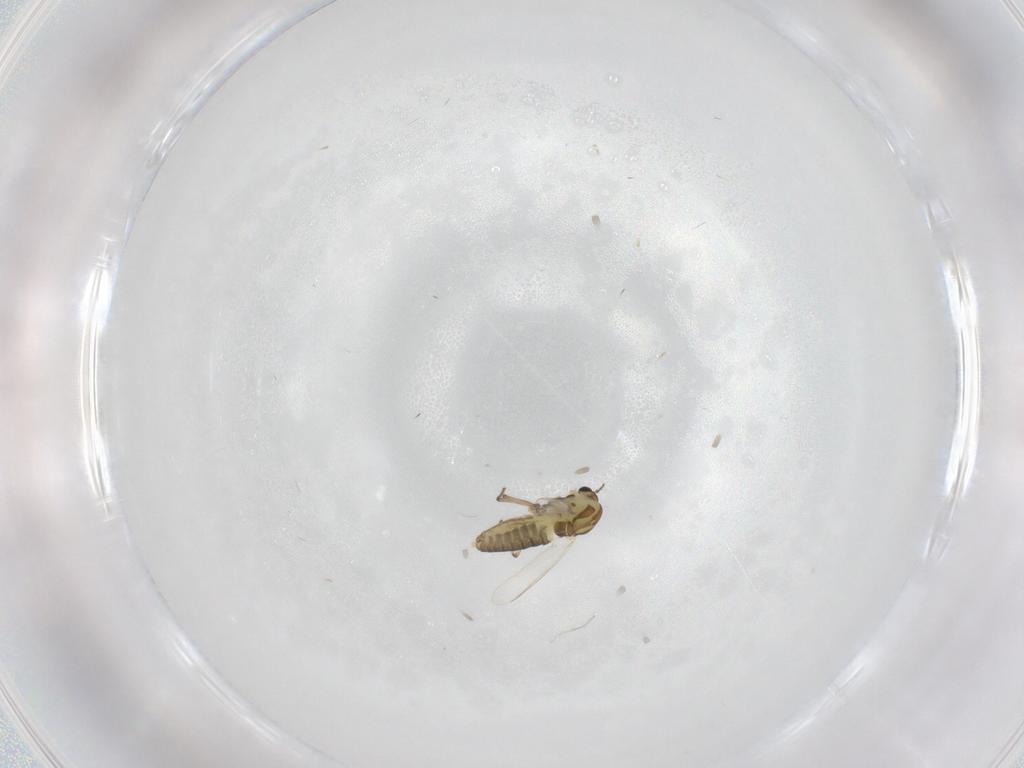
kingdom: Animalia
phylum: Arthropoda
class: Insecta
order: Diptera
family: Chironomidae
